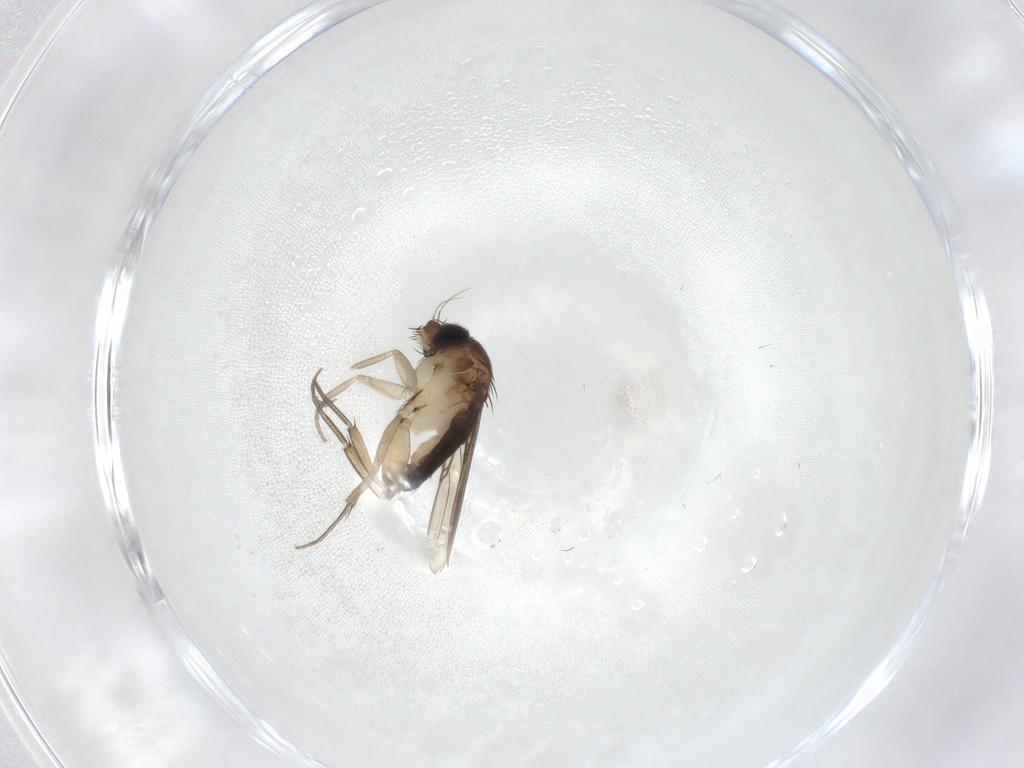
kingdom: Animalia
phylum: Arthropoda
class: Insecta
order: Diptera
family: Phoridae
